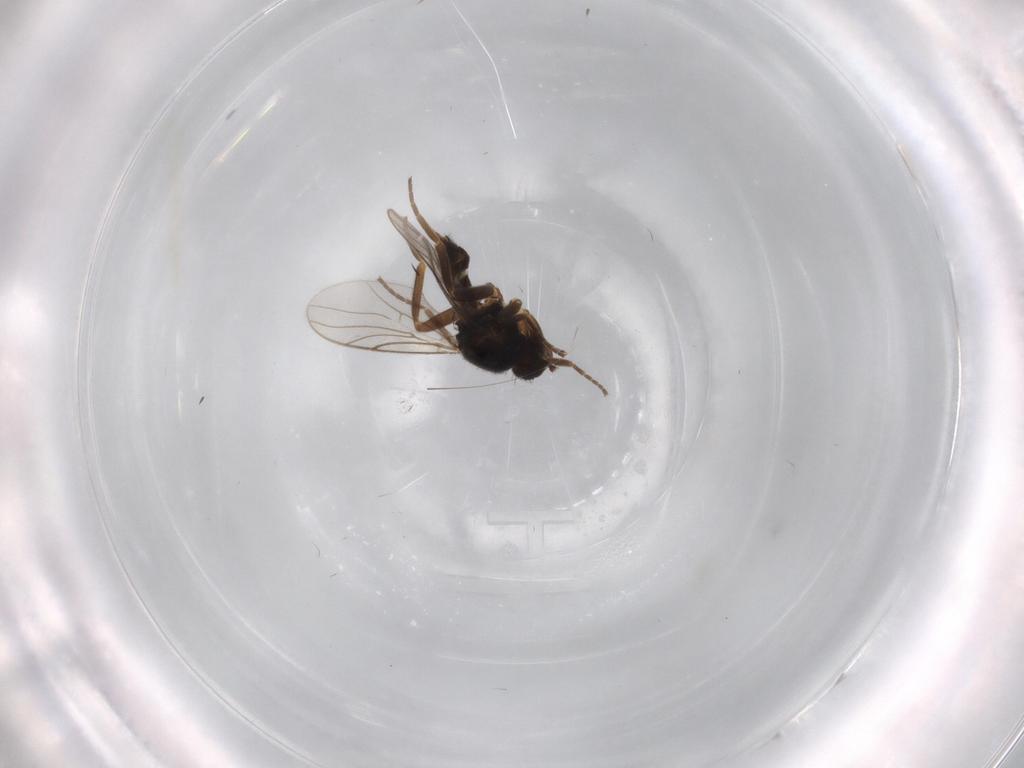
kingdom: Animalia
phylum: Arthropoda
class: Insecta
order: Diptera
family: Hybotidae
